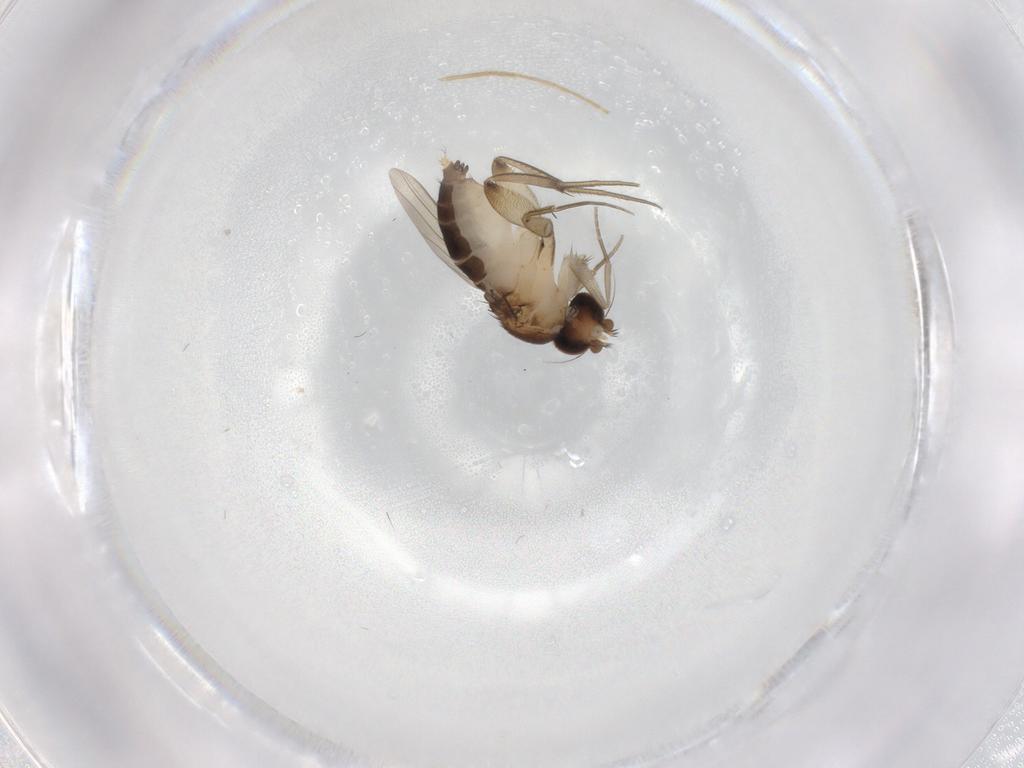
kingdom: Animalia
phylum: Arthropoda
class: Insecta
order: Diptera
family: Phoridae
